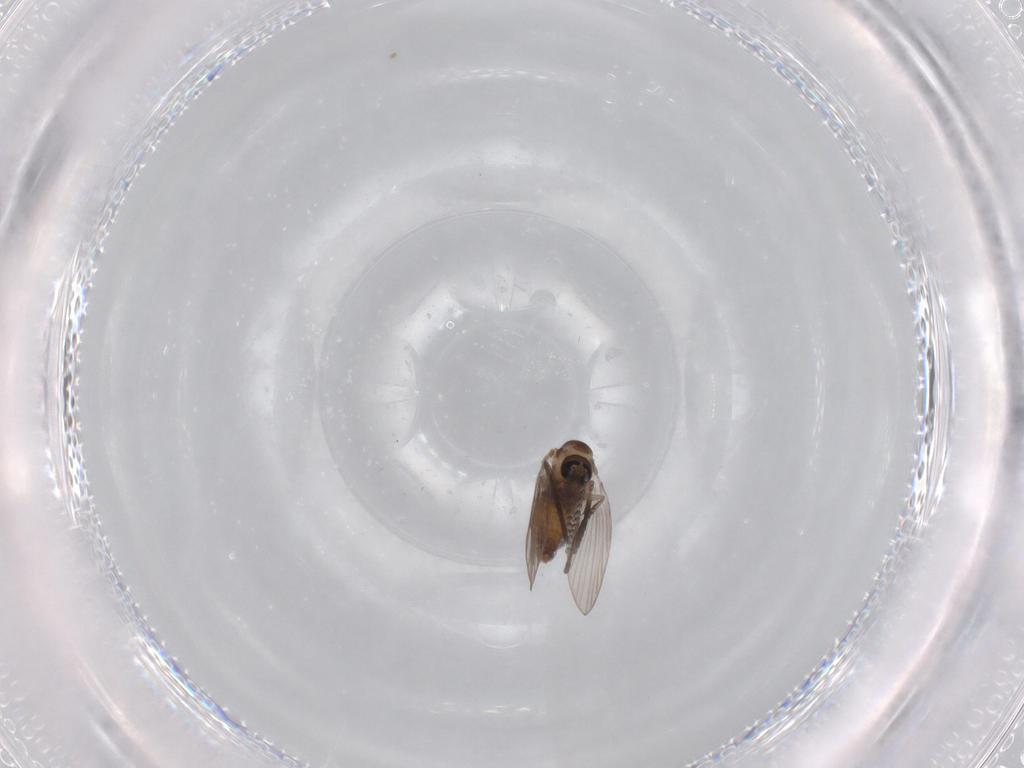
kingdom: Animalia
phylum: Arthropoda
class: Insecta
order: Diptera
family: Psychodidae
